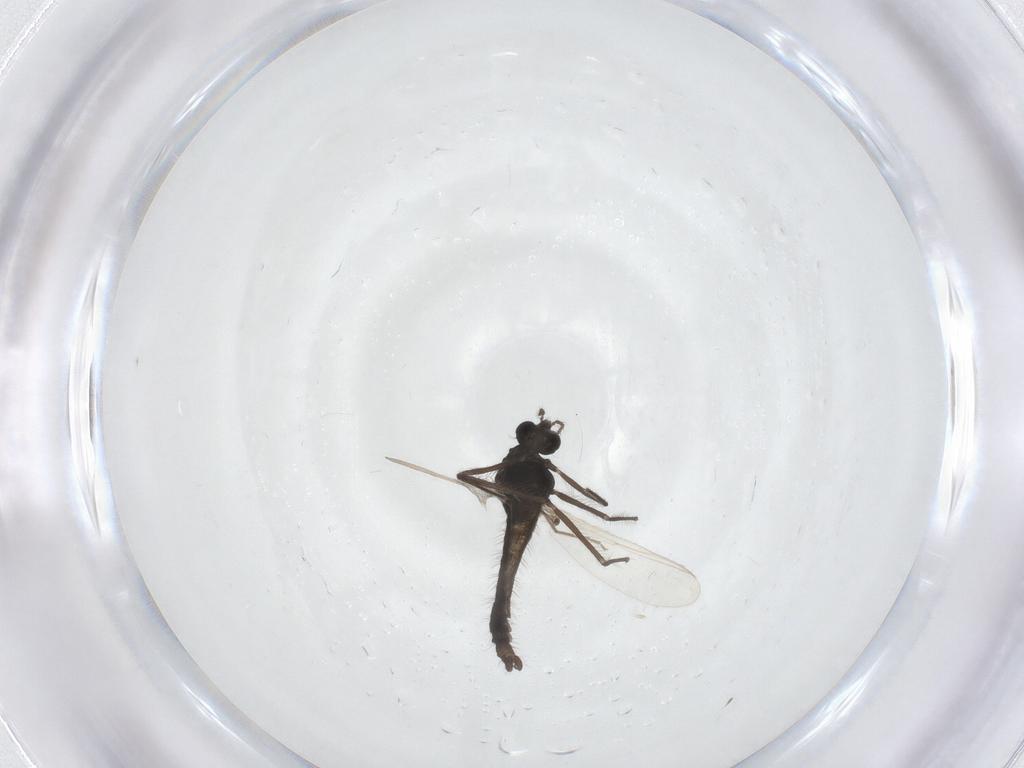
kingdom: Animalia
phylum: Arthropoda
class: Insecta
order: Diptera
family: Chironomidae
